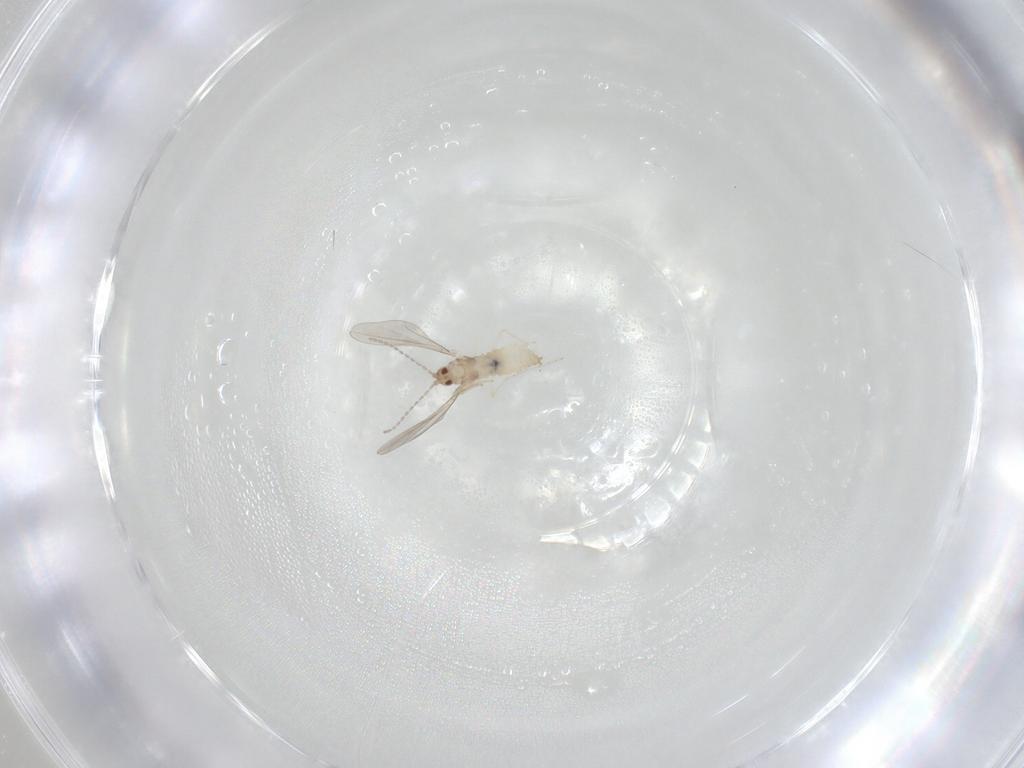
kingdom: Animalia
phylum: Arthropoda
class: Insecta
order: Diptera
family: Cecidomyiidae
